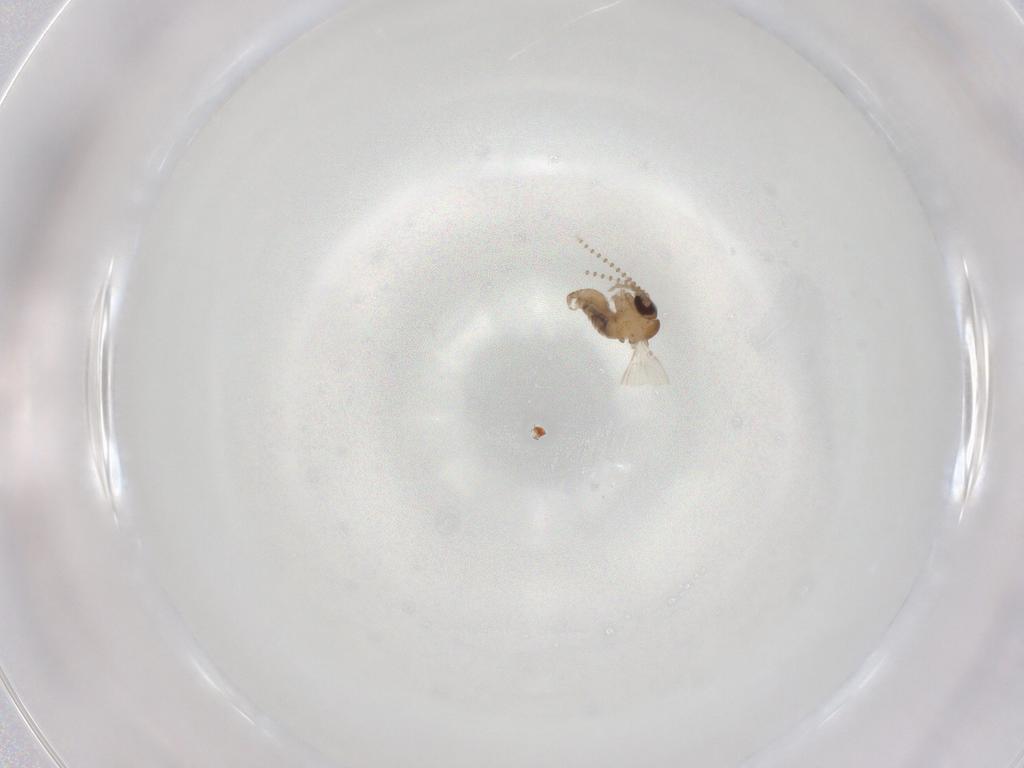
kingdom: Animalia
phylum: Arthropoda
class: Insecta
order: Diptera
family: Psychodidae
